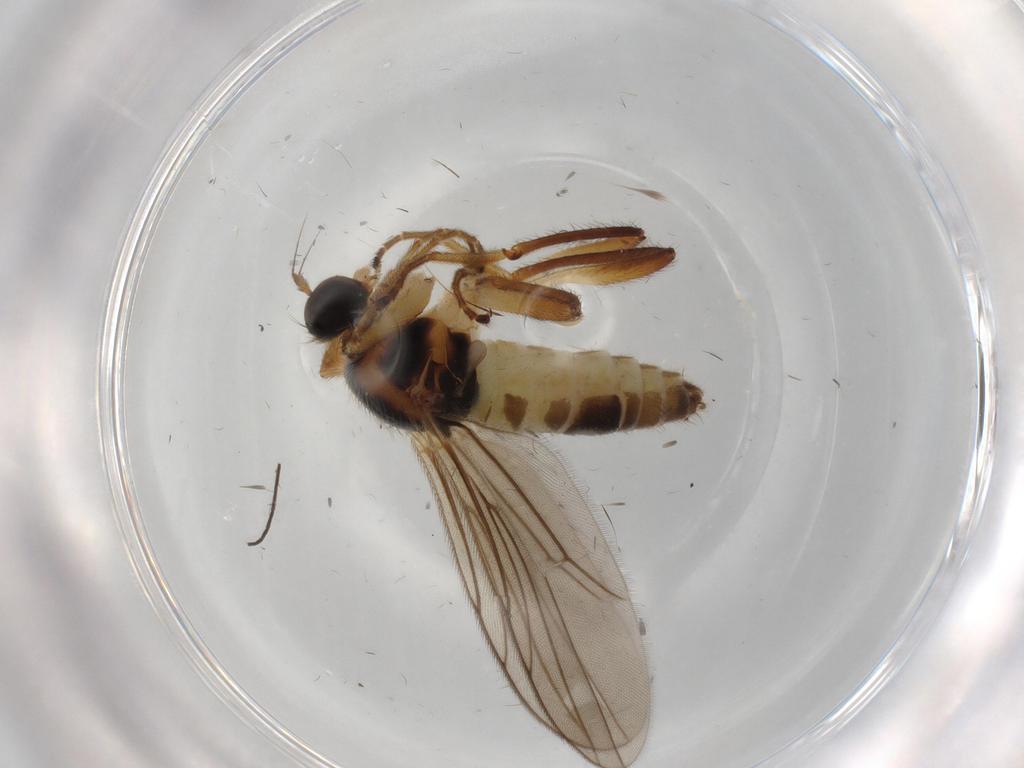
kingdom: Animalia
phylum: Arthropoda
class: Insecta
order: Diptera
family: Hybotidae
